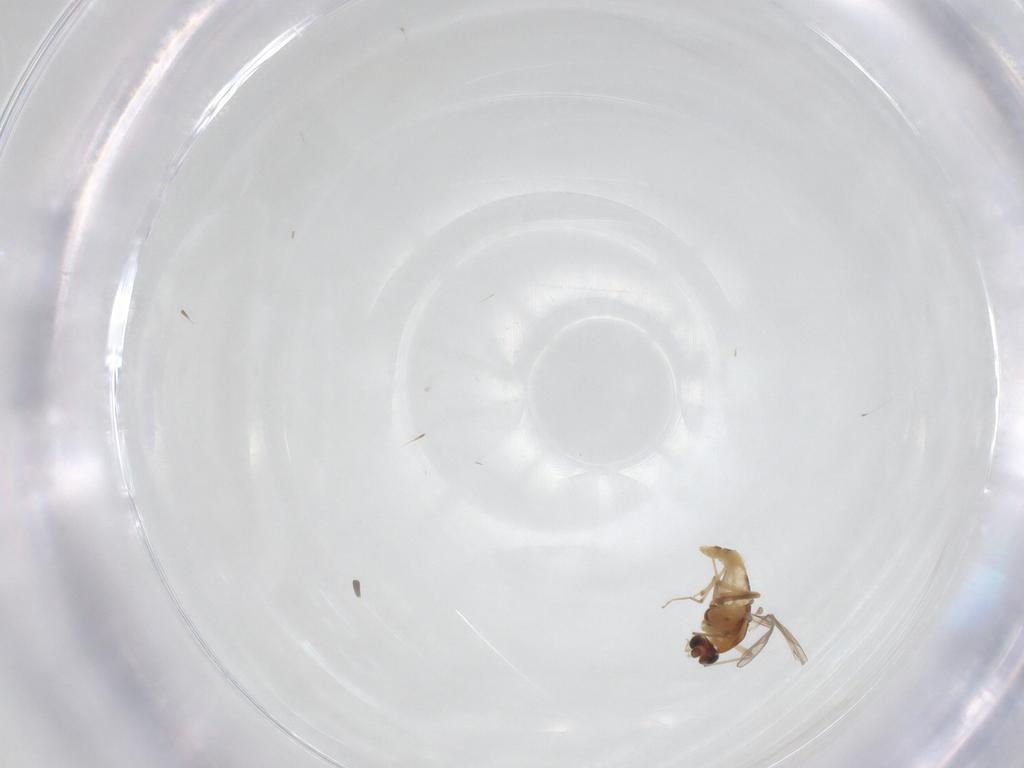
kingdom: Animalia
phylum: Arthropoda
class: Insecta
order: Diptera
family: Chironomidae
